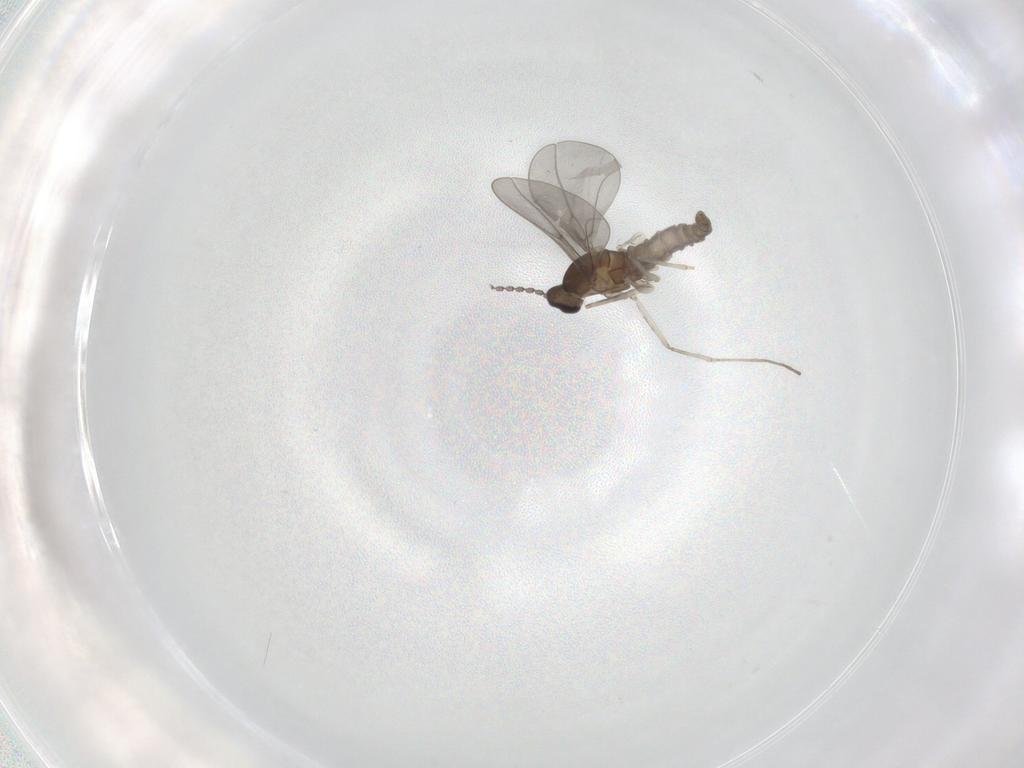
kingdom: Animalia
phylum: Arthropoda
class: Insecta
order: Diptera
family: Cecidomyiidae
